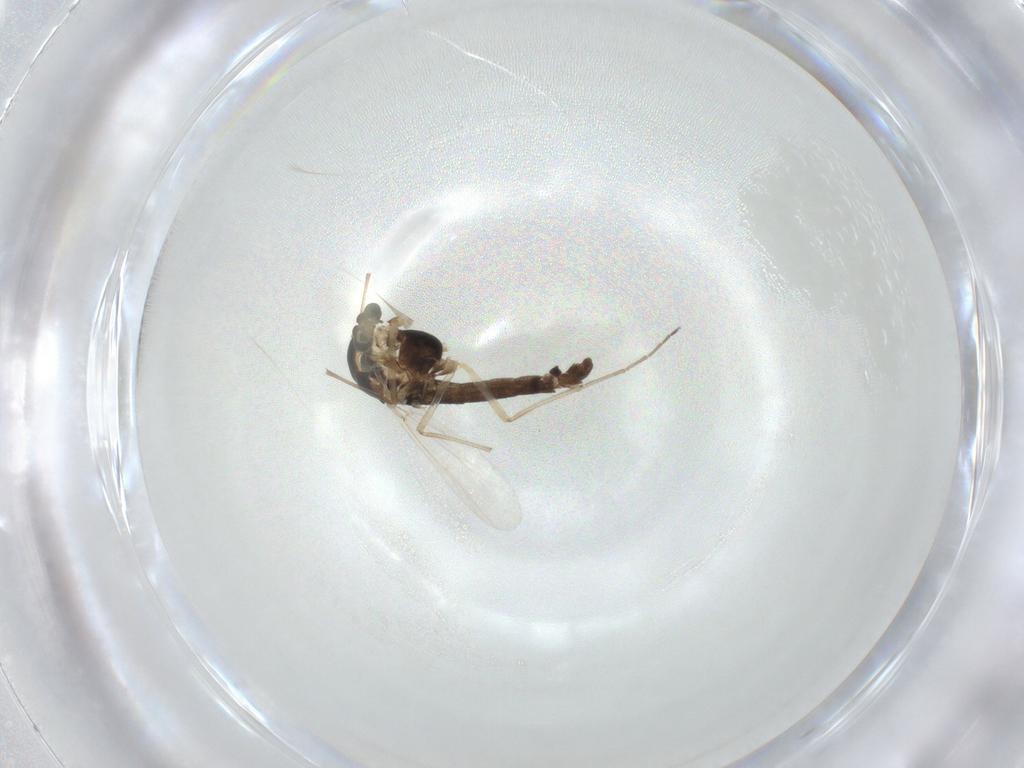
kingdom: Animalia
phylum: Arthropoda
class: Insecta
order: Diptera
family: Chironomidae
